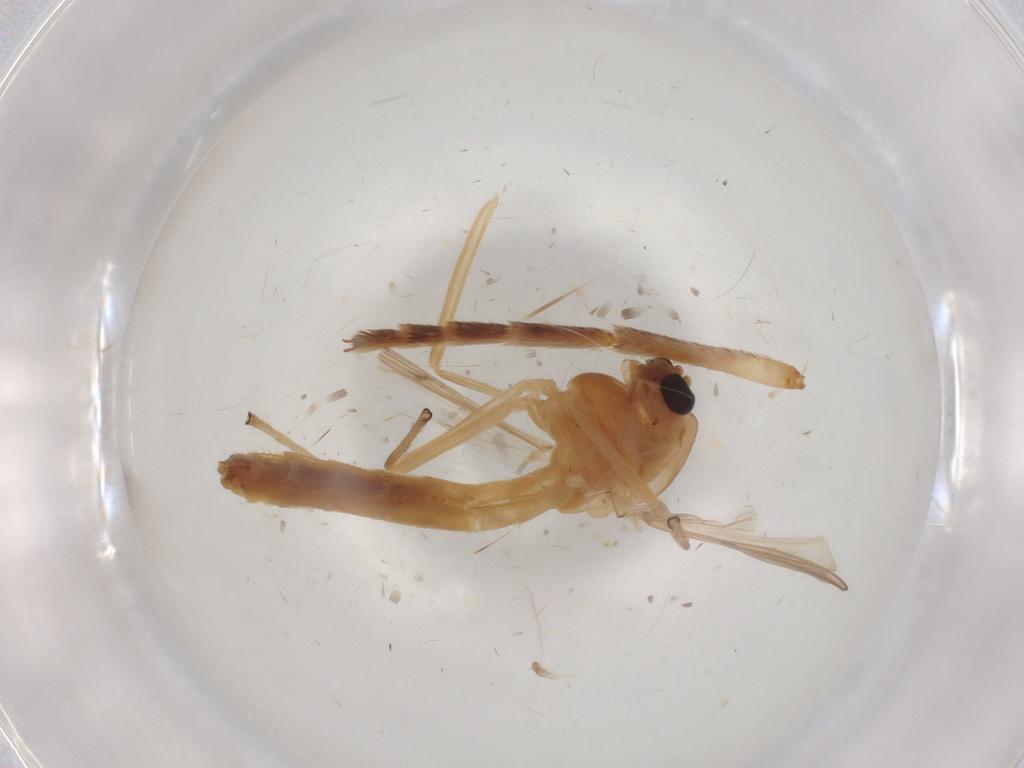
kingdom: Animalia
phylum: Arthropoda
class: Insecta
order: Diptera
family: Chironomidae
